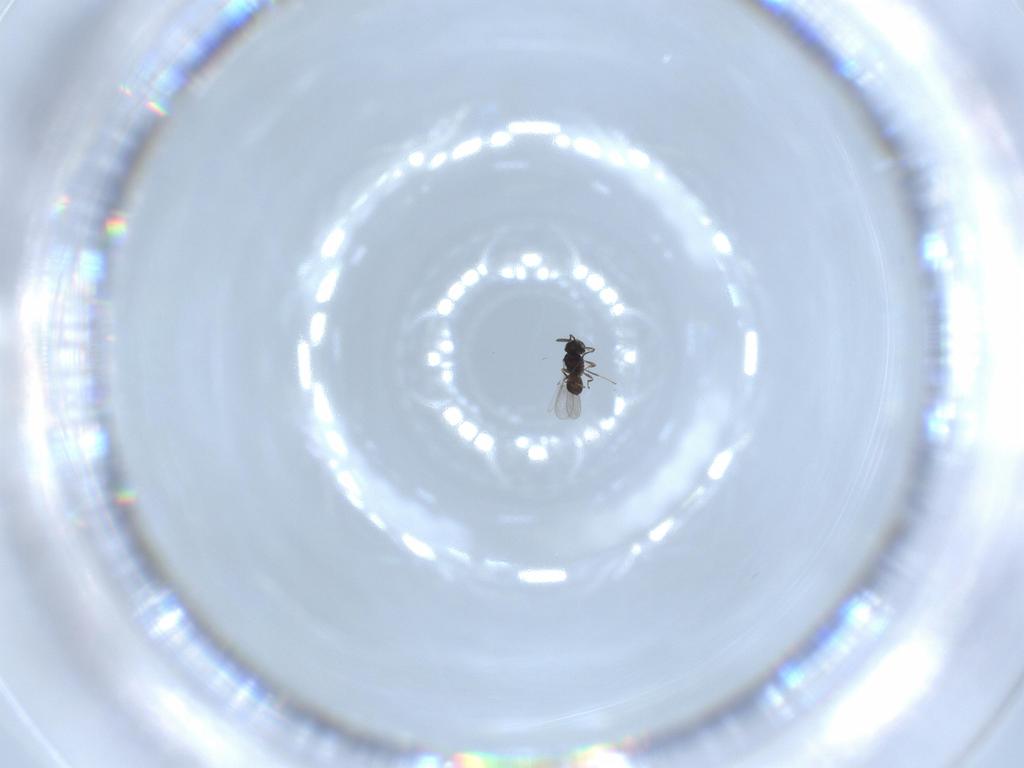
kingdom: Animalia
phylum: Arthropoda
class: Insecta
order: Hymenoptera
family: Scelionidae
